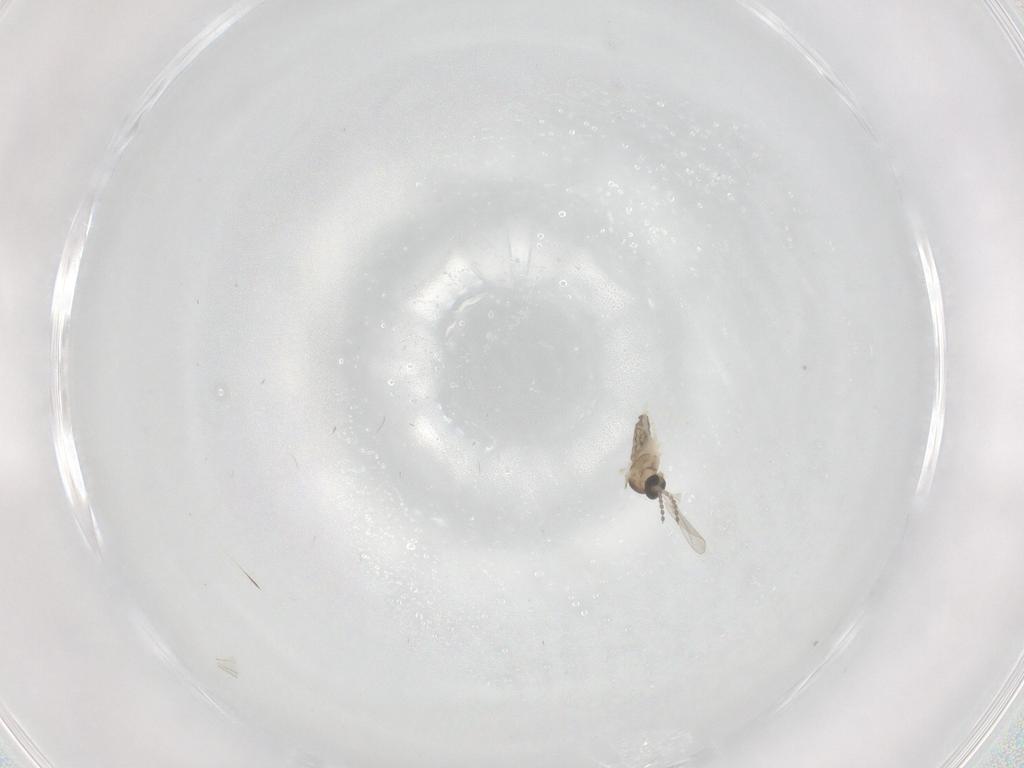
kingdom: Animalia
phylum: Arthropoda
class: Insecta
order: Diptera
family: Cecidomyiidae
